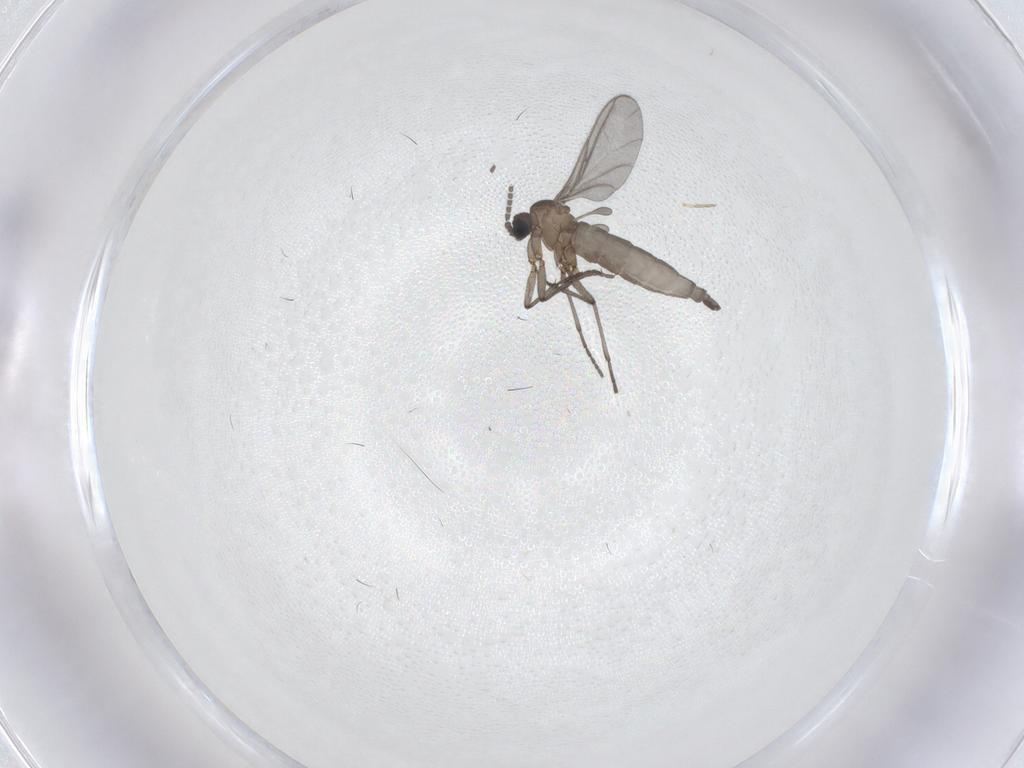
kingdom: Animalia
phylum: Arthropoda
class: Insecta
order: Diptera
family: Sciaridae
